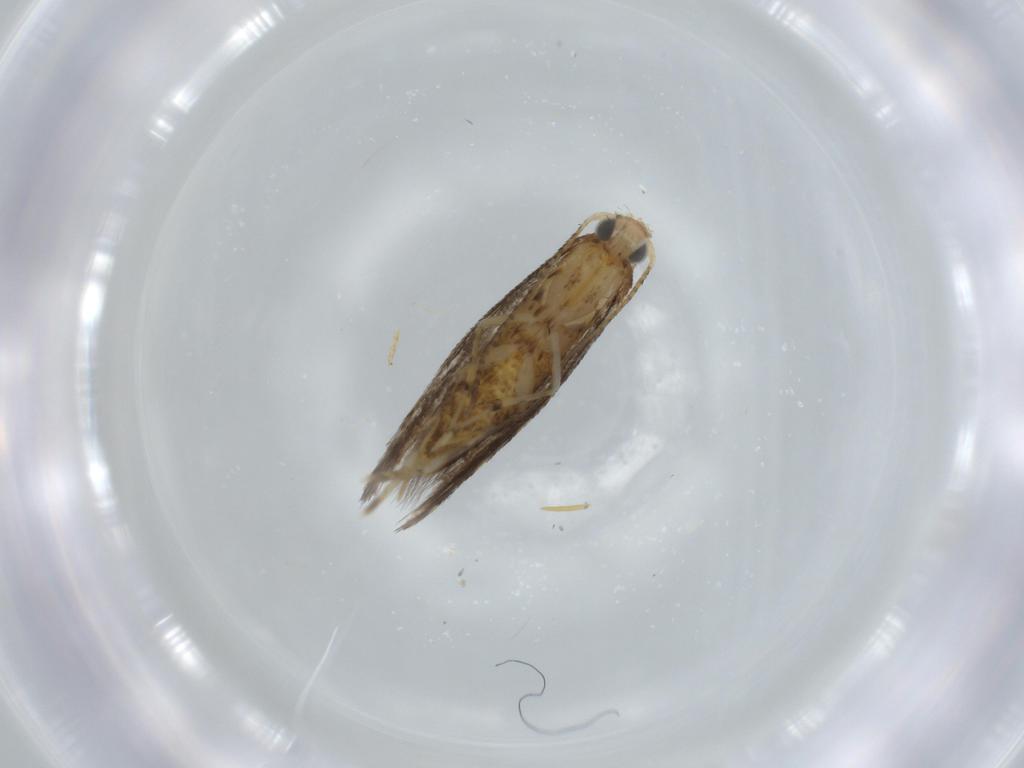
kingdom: Animalia
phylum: Arthropoda
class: Insecta
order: Lepidoptera
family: Argyresthiidae
